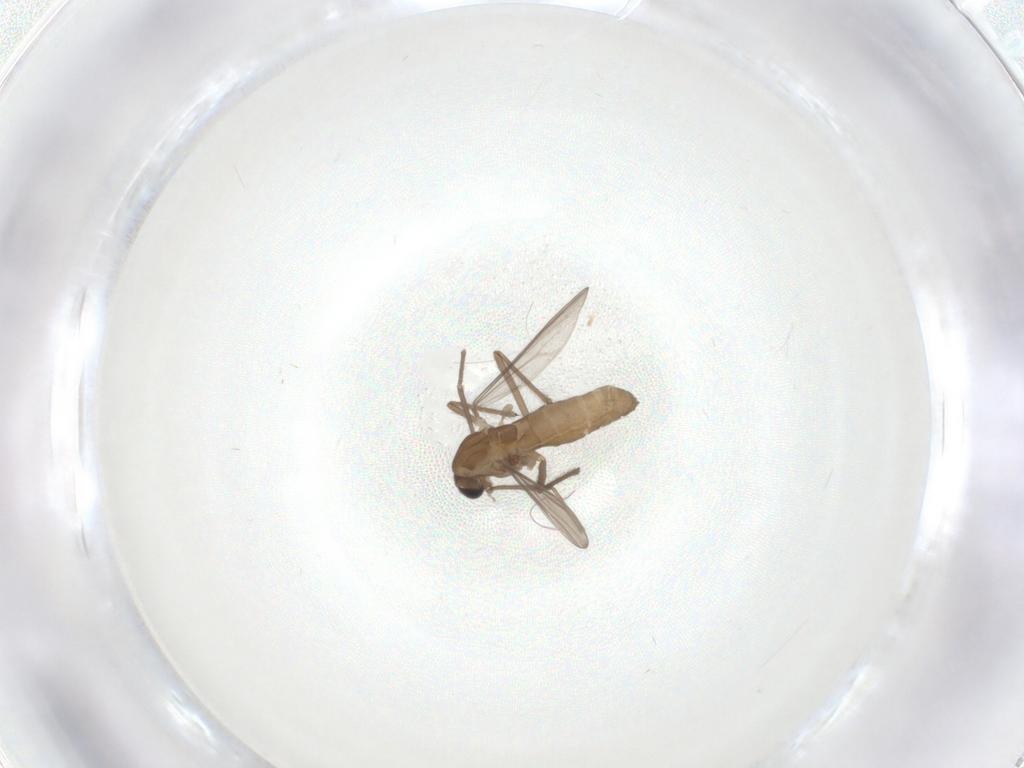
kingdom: Animalia
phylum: Arthropoda
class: Insecta
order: Diptera
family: Chironomidae
